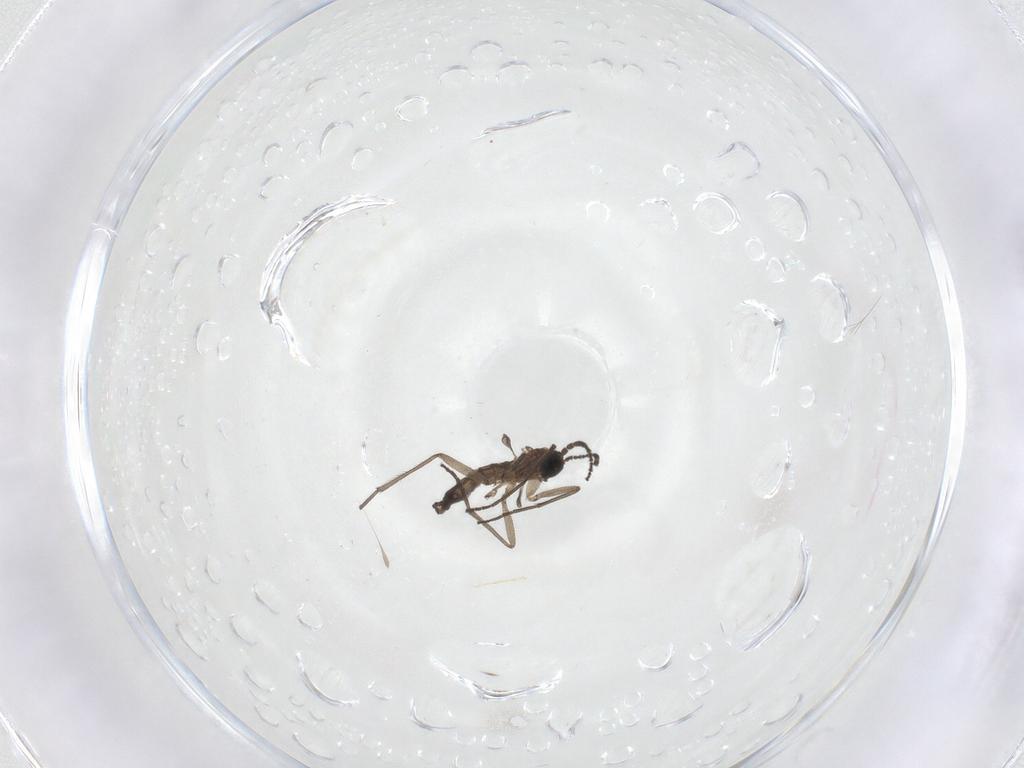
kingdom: Animalia
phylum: Arthropoda
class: Insecta
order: Diptera
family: Sciaridae
